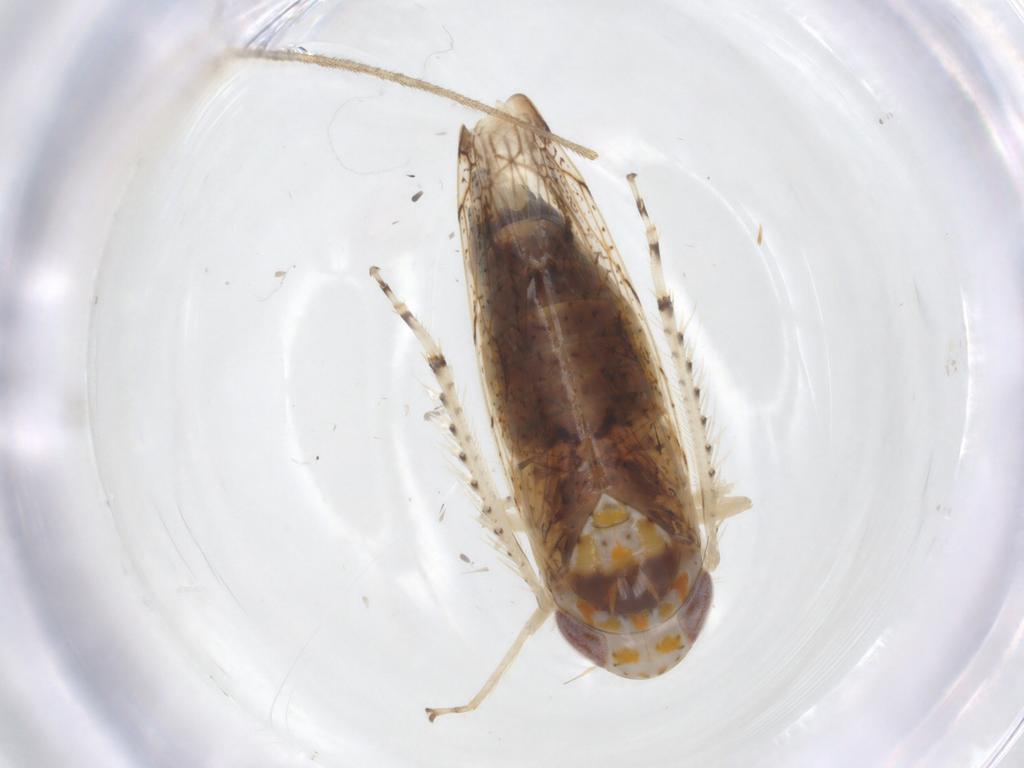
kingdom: Animalia
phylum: Arthropoda
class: Insecta
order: Hemiptera
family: Cicadellidae
